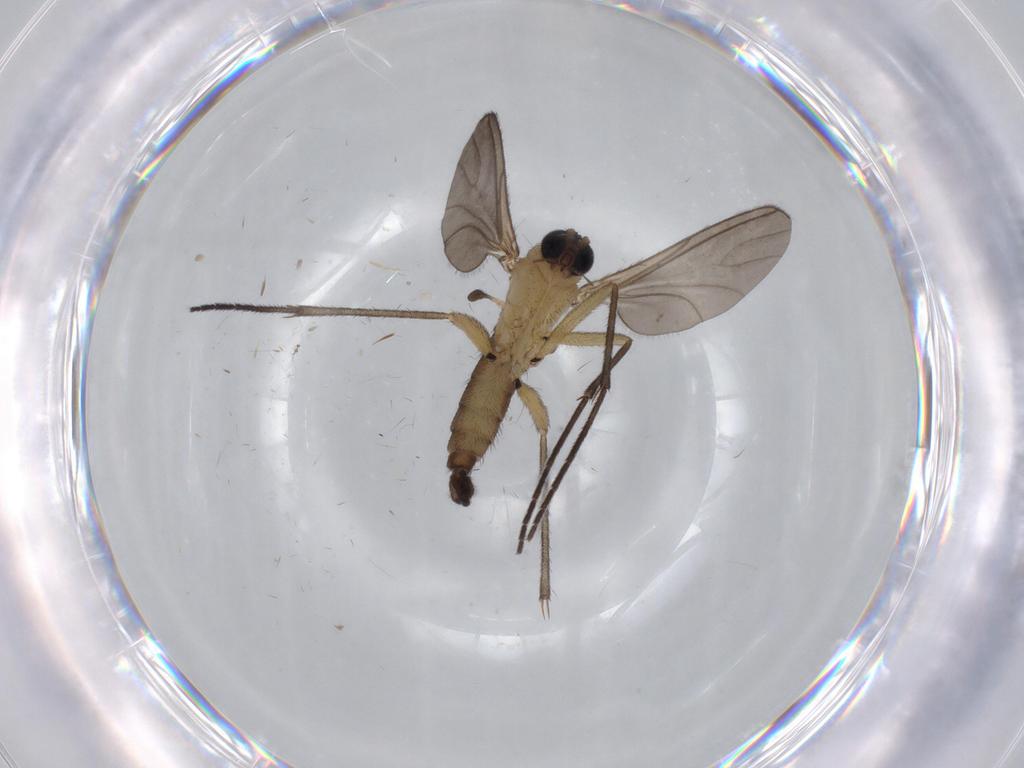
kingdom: Animalia
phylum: Arthropoda
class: Insecta
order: Diptera
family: Sciaridae
